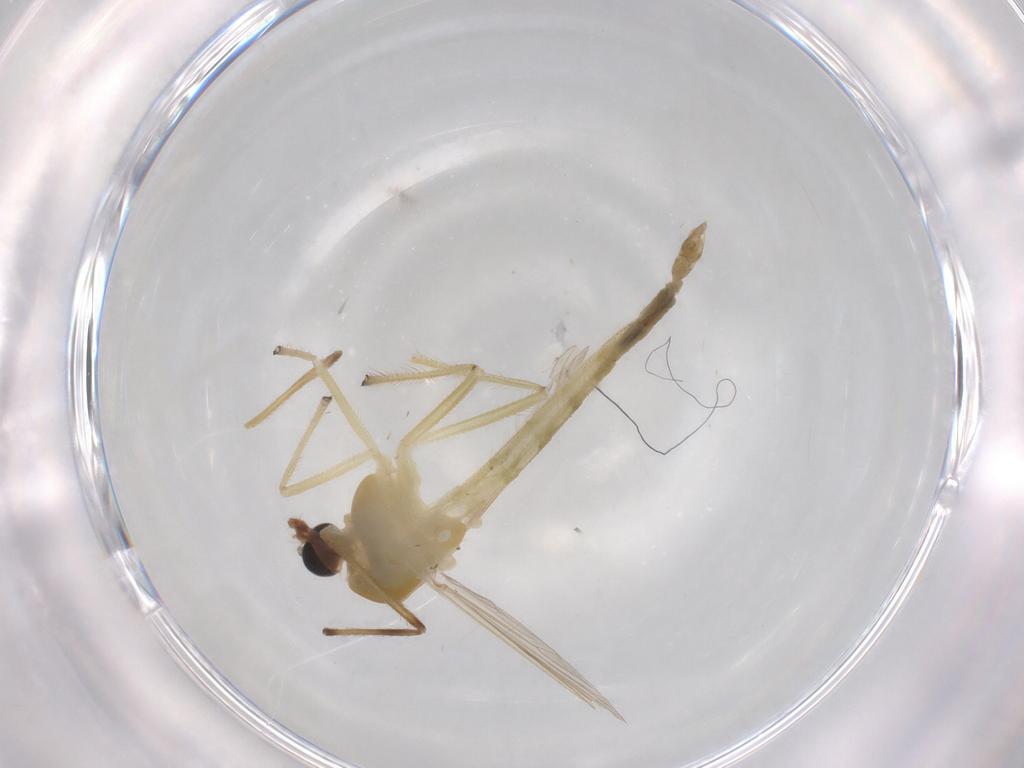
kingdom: Animalia
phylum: Arthropoda
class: Insecta
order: Diptera
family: Chironomidae
